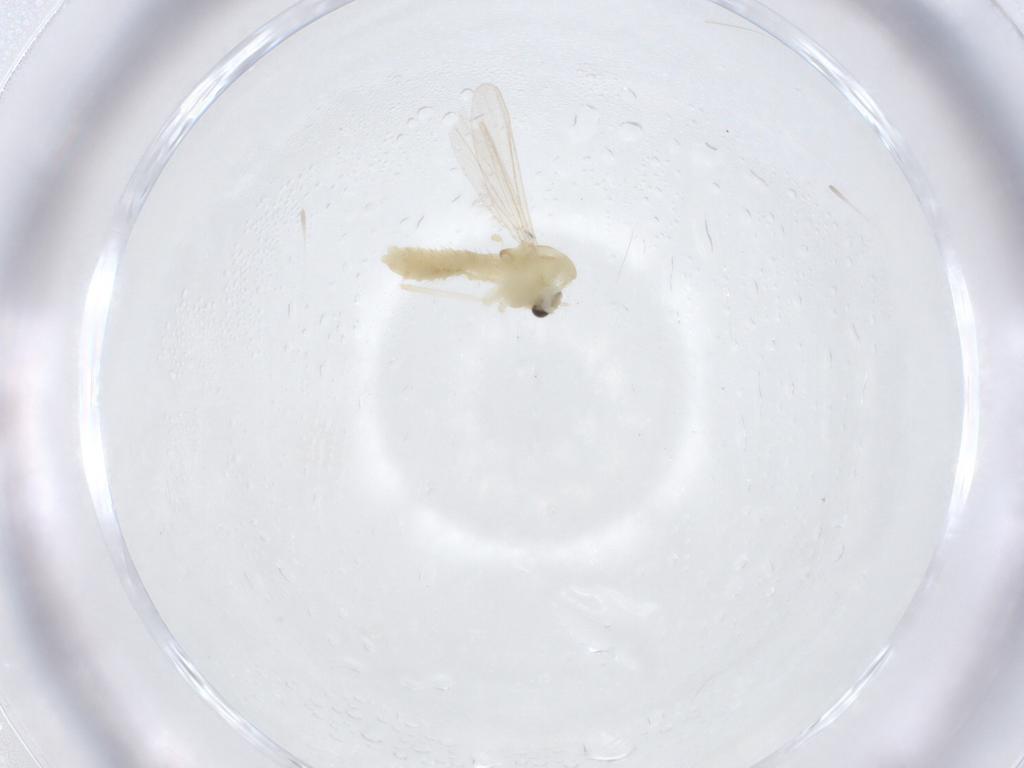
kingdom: Animalia
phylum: Arthropoda
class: Insecta
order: Diptera
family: Chironomidae
